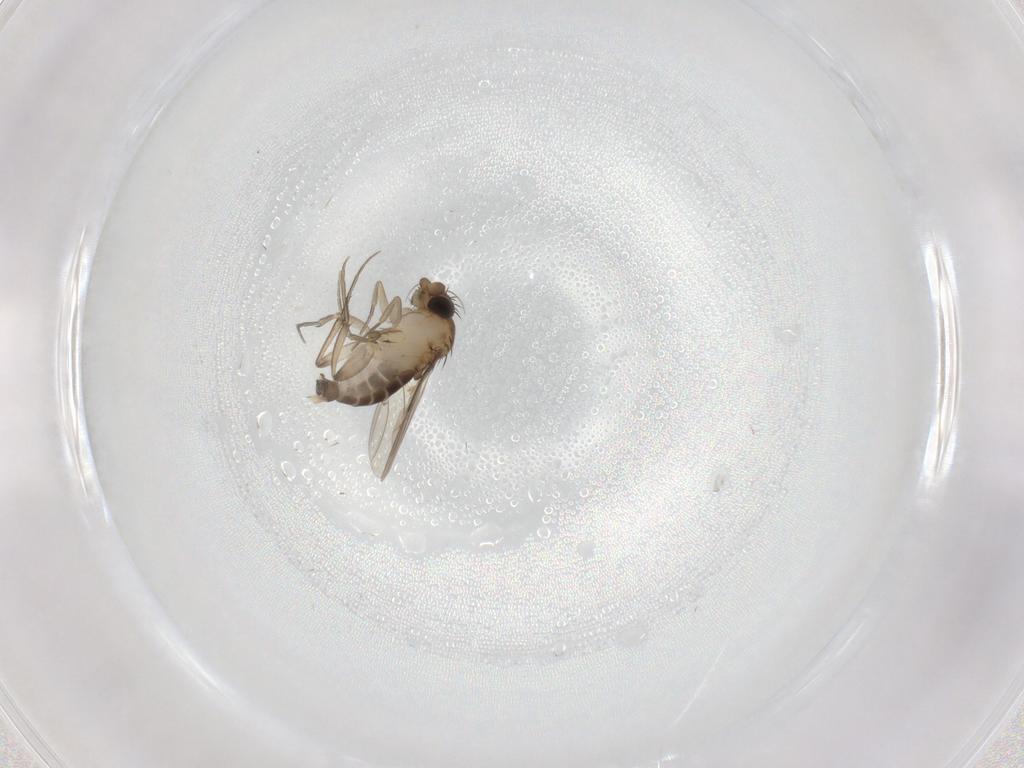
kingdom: Animalia
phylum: Arthropoda
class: Insecta
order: Diptera
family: Phoridae
